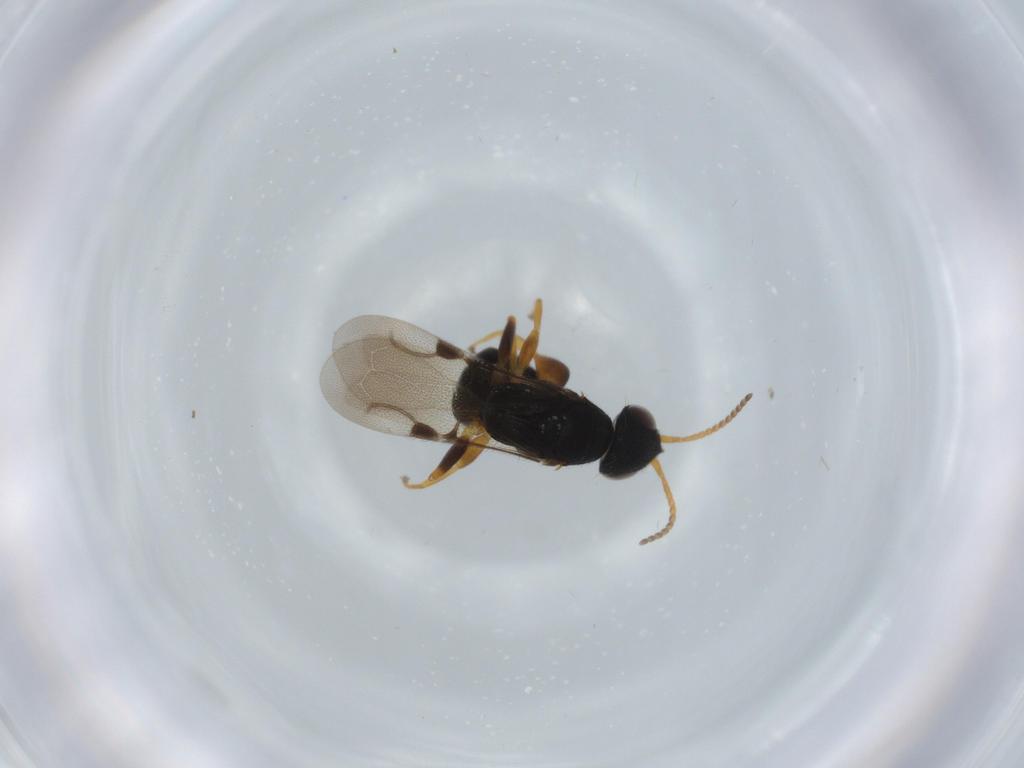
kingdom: Animalia
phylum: Arthropoda
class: Insecta
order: Hymenoptera
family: Bethylidae
